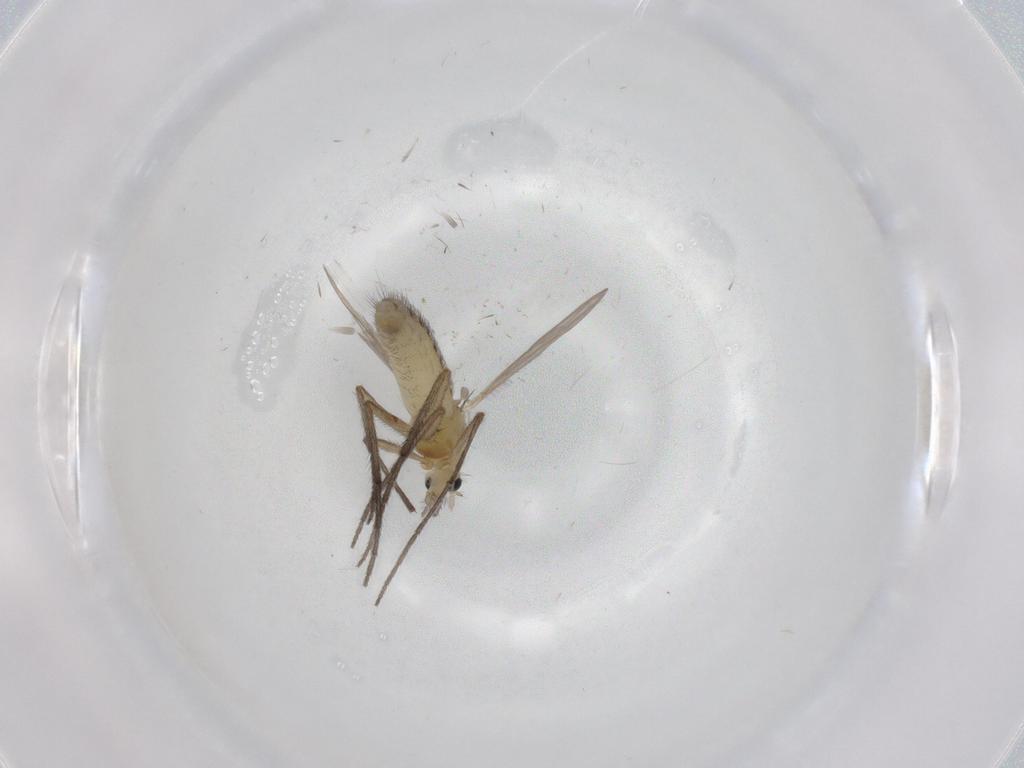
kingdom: Animalia
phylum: Arthropoda
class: Insecta
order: Diptera
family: Chironomidae
